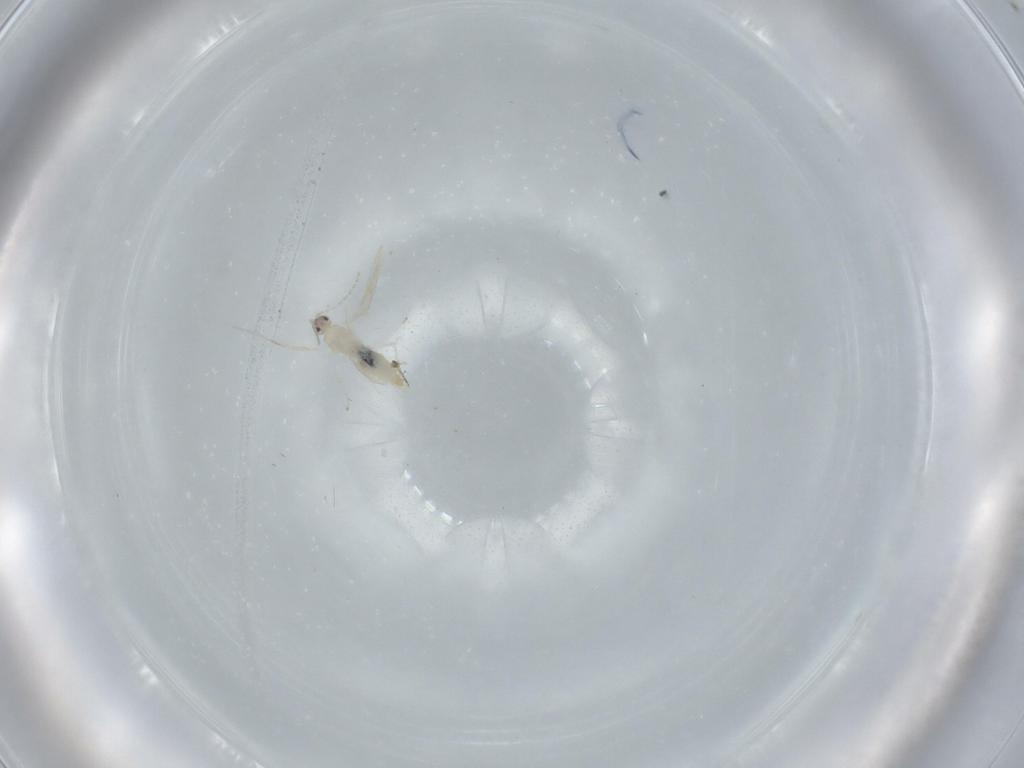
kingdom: Animalia
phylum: Arthropoda
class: Insecta
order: Diptera
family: Cecidomyiidae
